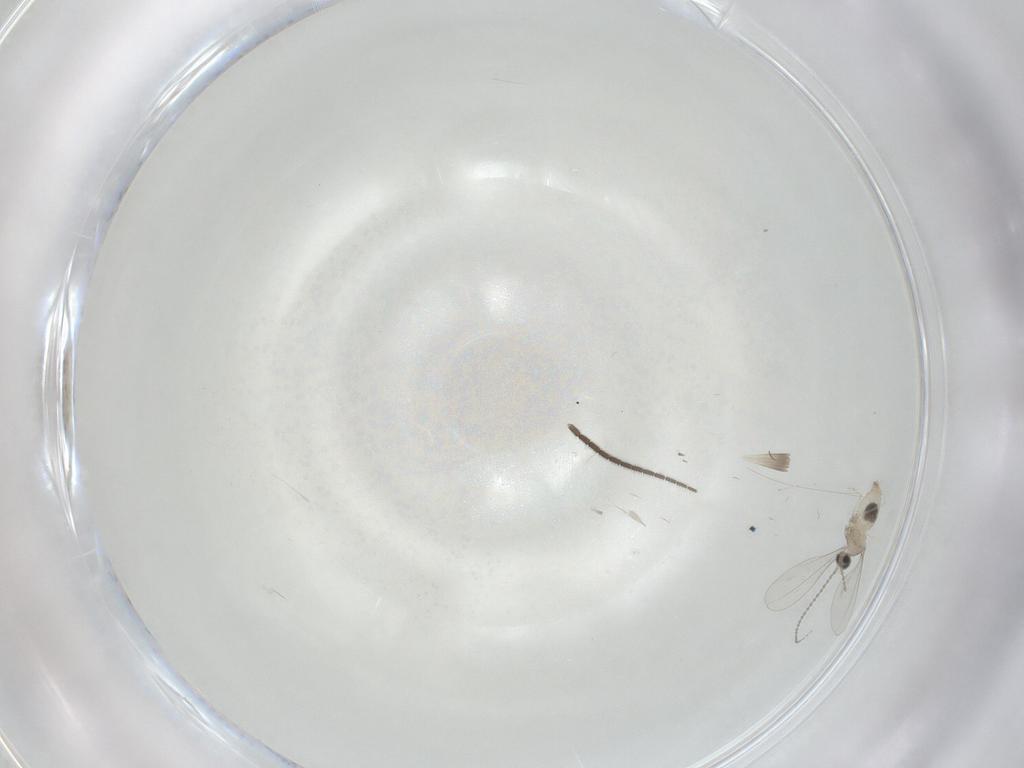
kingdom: Animalia
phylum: Arthropoda
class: Insecta
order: Diptera
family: Cecidomyiidae
